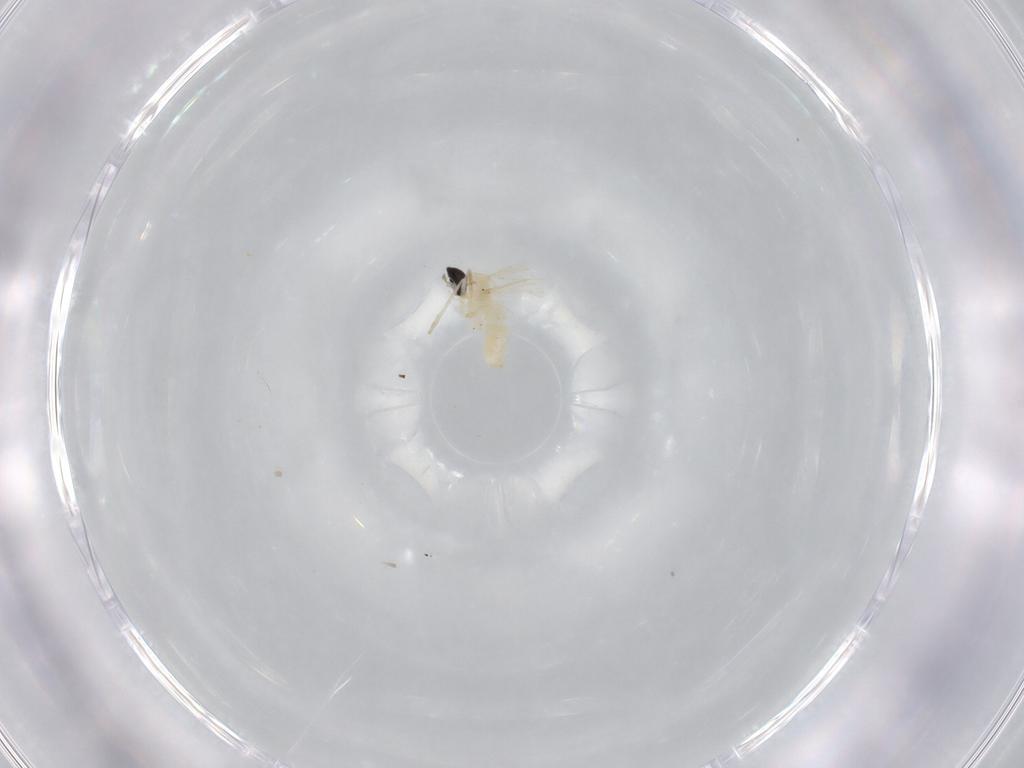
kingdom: Animalia
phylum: Arthropoda
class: Insecta
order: Diptera
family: Cecidomyiidae
